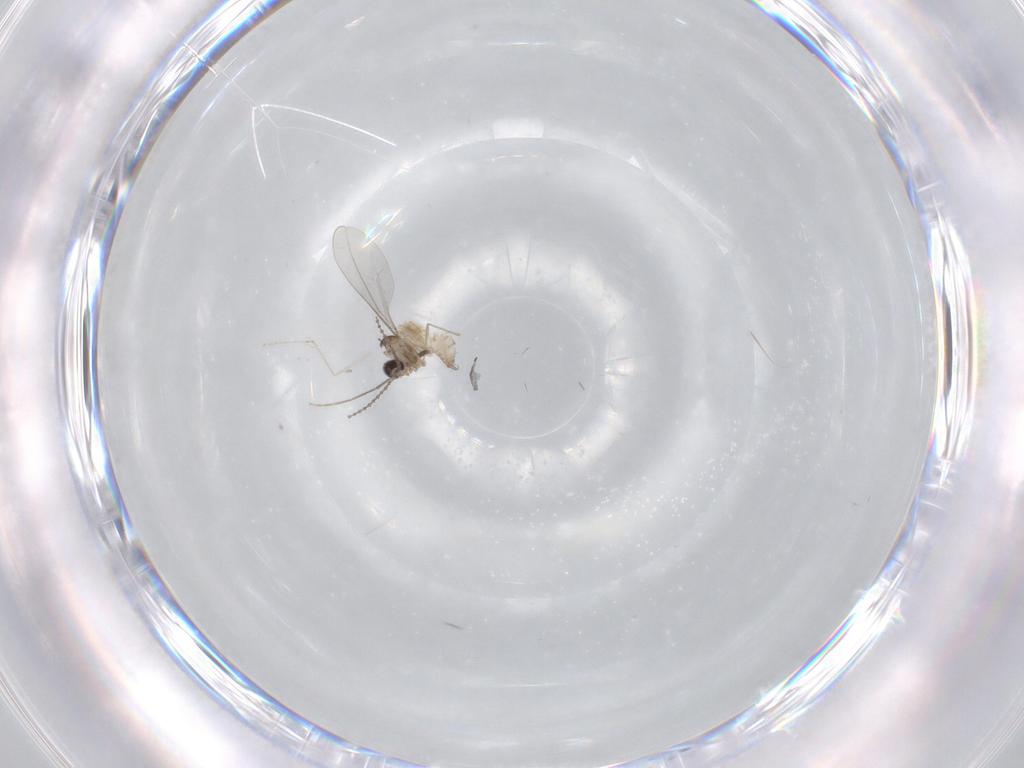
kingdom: Animalia
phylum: Arthropoda
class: Insecta
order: Diptera
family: Cecidomyiidae
